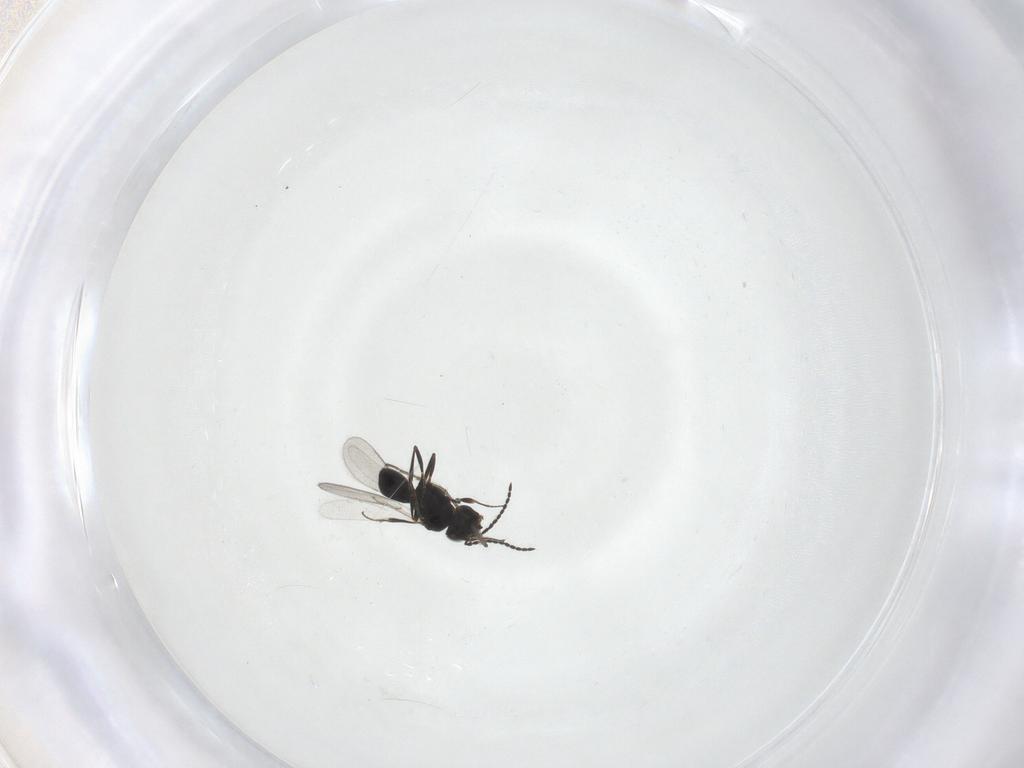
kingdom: Animalia
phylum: Arthropoda
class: Insecta
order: Hymenoptera
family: Scelionidae
